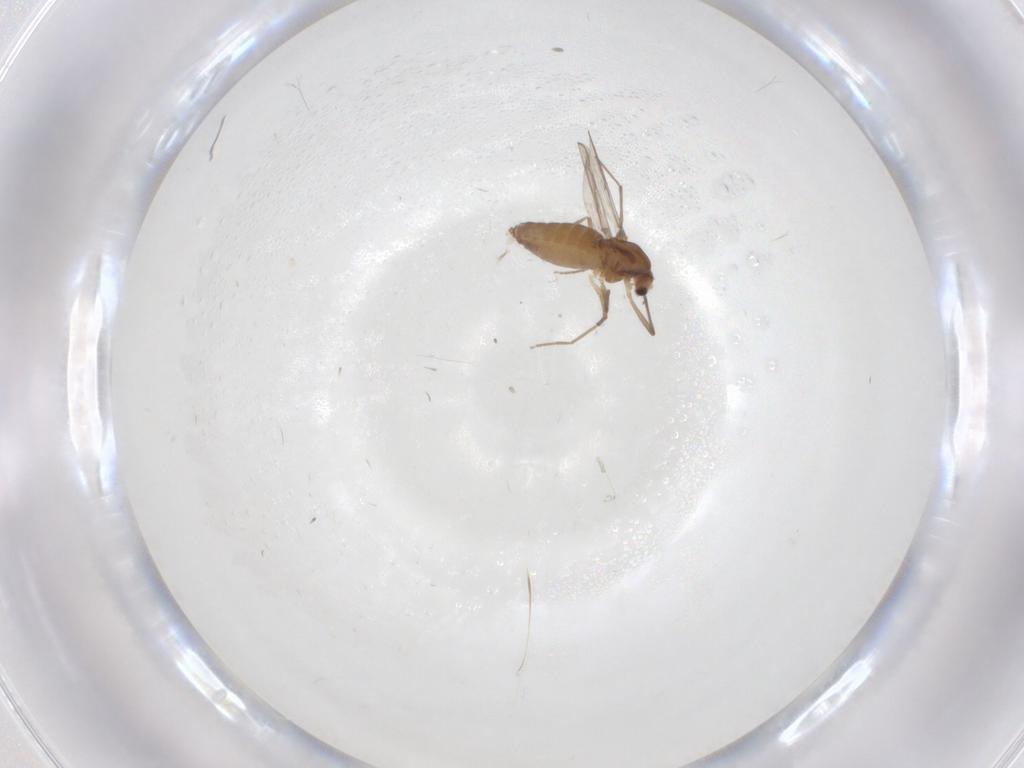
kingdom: Animalia
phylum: Arthropoda
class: Insecta
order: Diptera
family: Chironomidae
